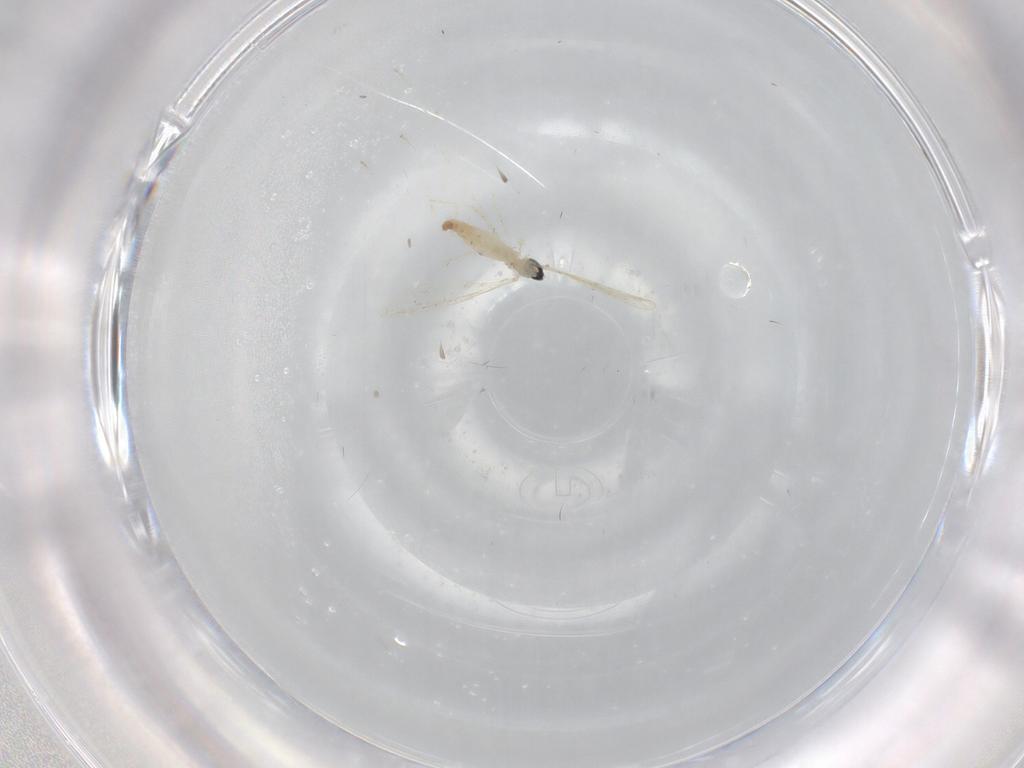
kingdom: Animalia
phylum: Arthropoda
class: Insecta
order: Diptera
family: Cecidomyiidae
